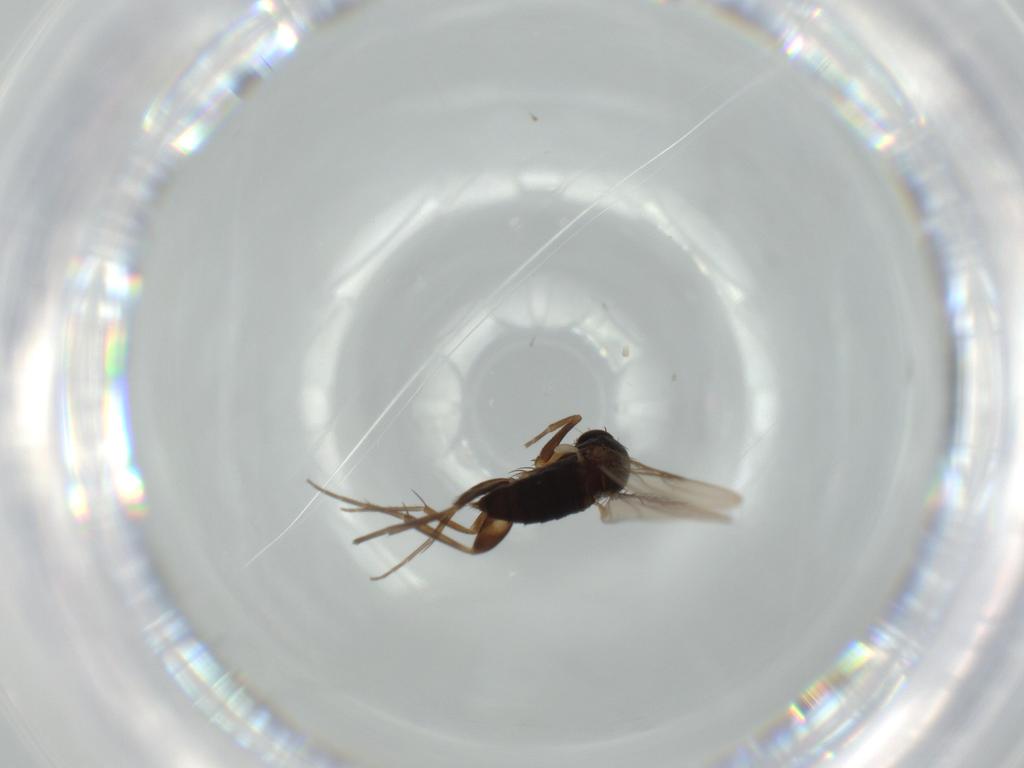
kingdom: Animalia
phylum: Arthropoda
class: Insecta
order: Diptera
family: Phoridae
